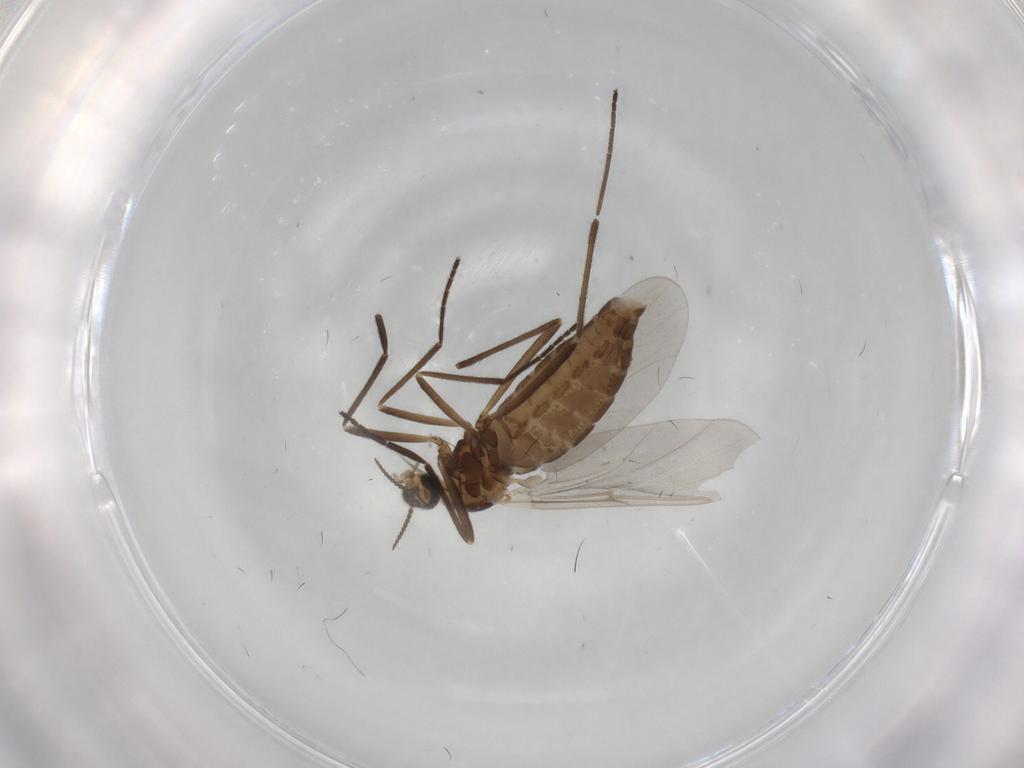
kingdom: Animalia
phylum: Arthropoda
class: Insecta
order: Diptera
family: Cecidomyiidae
